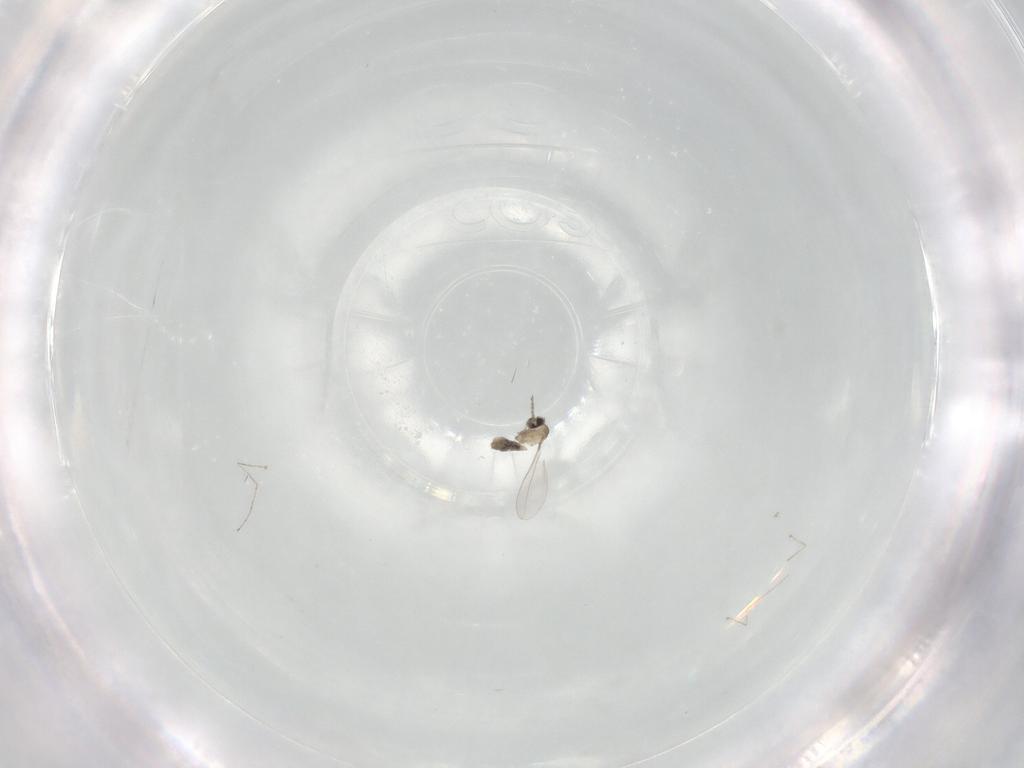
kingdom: Animalia
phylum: Arthropoda
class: Insecta
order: Diptera
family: Cecidomyiidae
